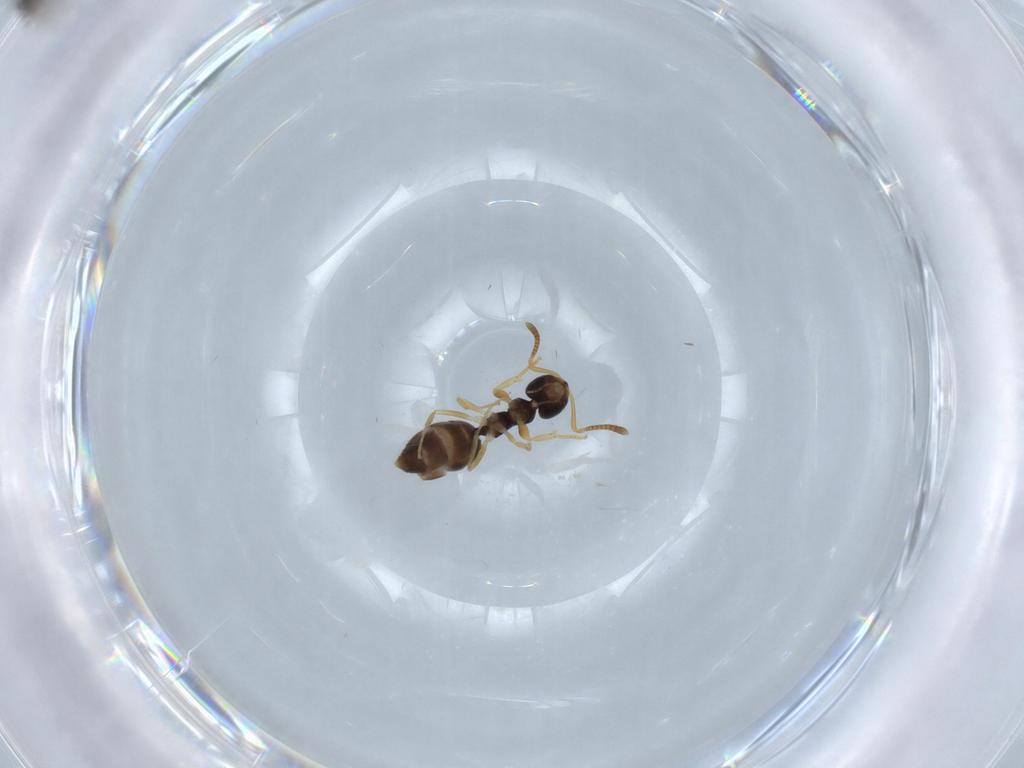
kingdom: Animalia
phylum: Arthropoda
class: Insecta
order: Hymenoptera
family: Formicidae
